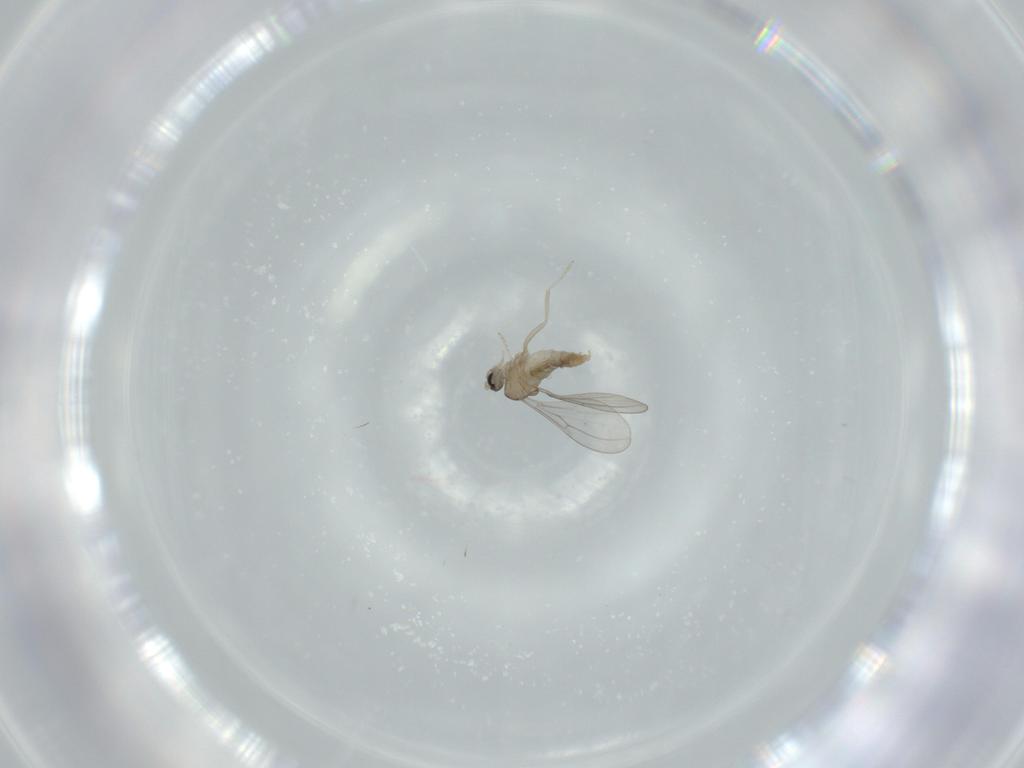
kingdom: Animalia
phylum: Arthropoda
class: Insecta
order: Diptera
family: Cecidomyiidae
